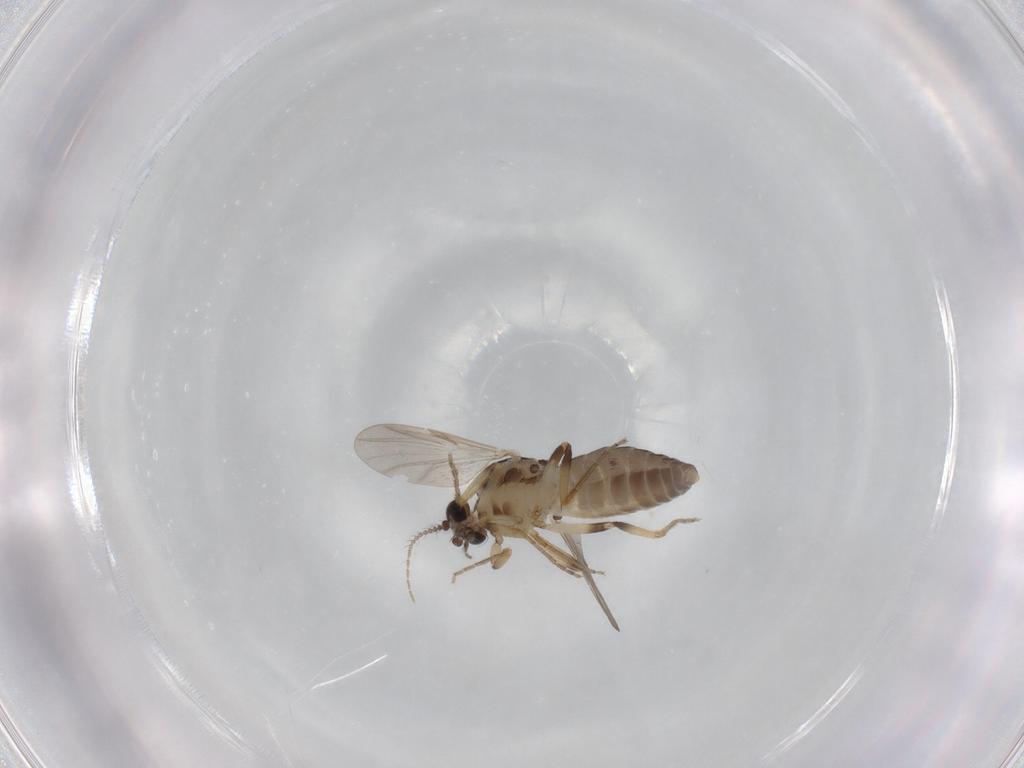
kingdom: Animalia
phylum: Arthropoda
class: Insecta
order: Diptera
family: Ceratopogonidae
